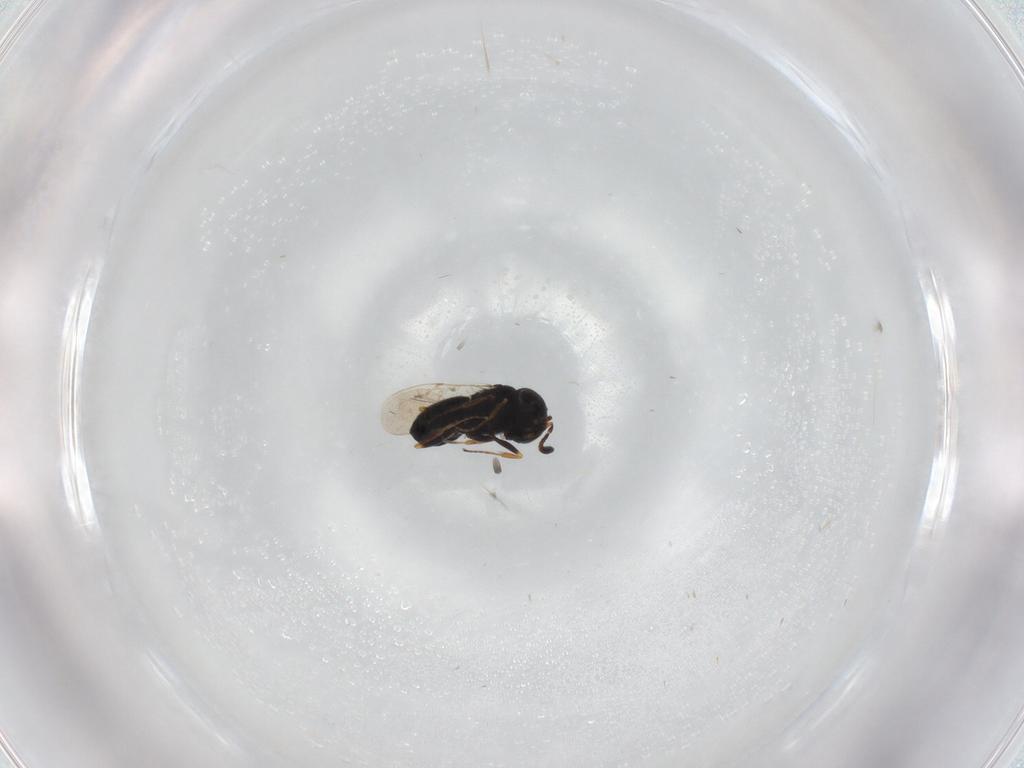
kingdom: Animalia
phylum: Arthropoda
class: Insecta
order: Hymenoptera
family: Scelionidae
